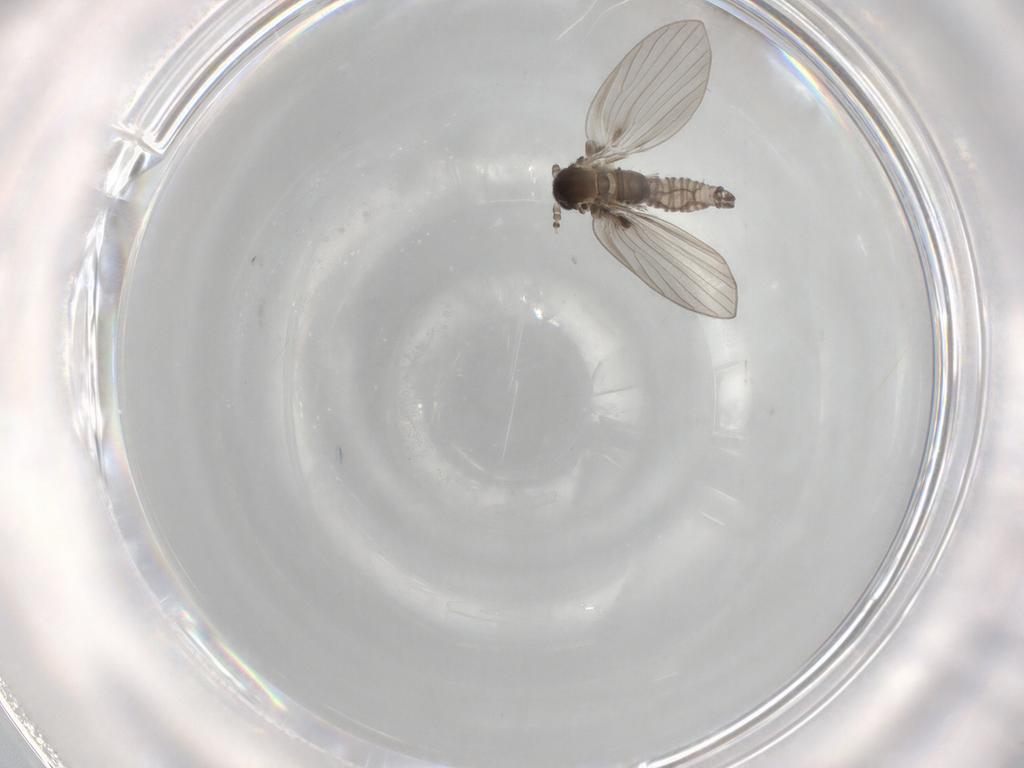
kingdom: Animalia
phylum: Arthropoda
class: Insecta
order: Diptera
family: Psychodidae
